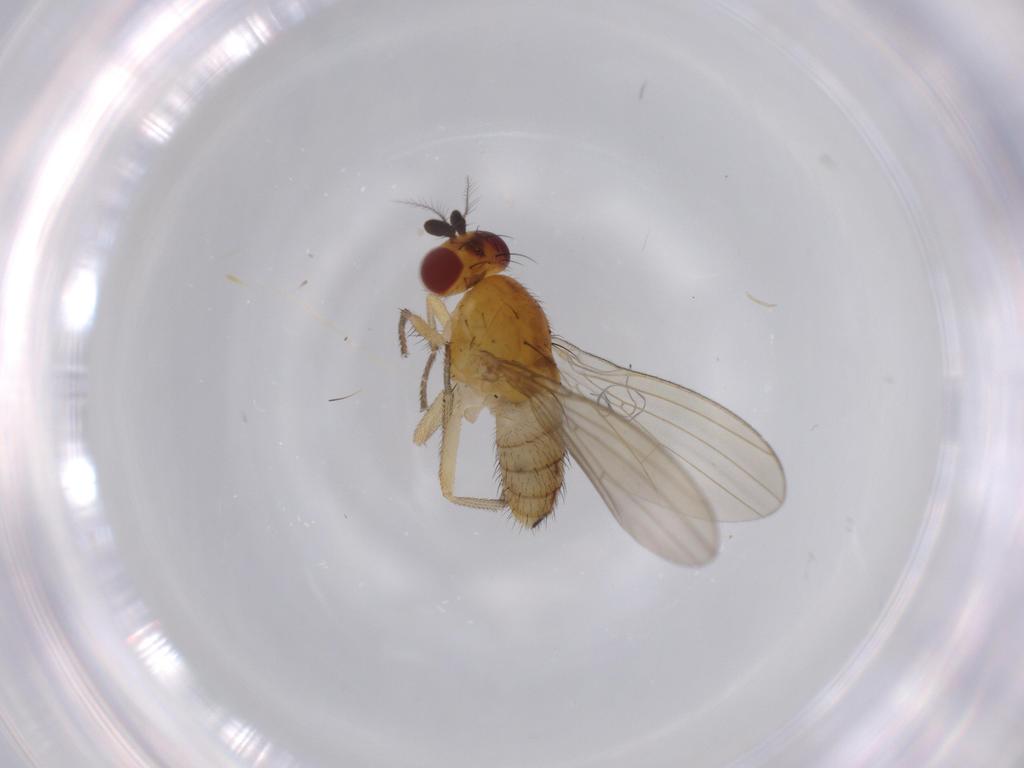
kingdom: Animalia
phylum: Arthropoda
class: Insecta
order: Diptera
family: Lauxaniidae
